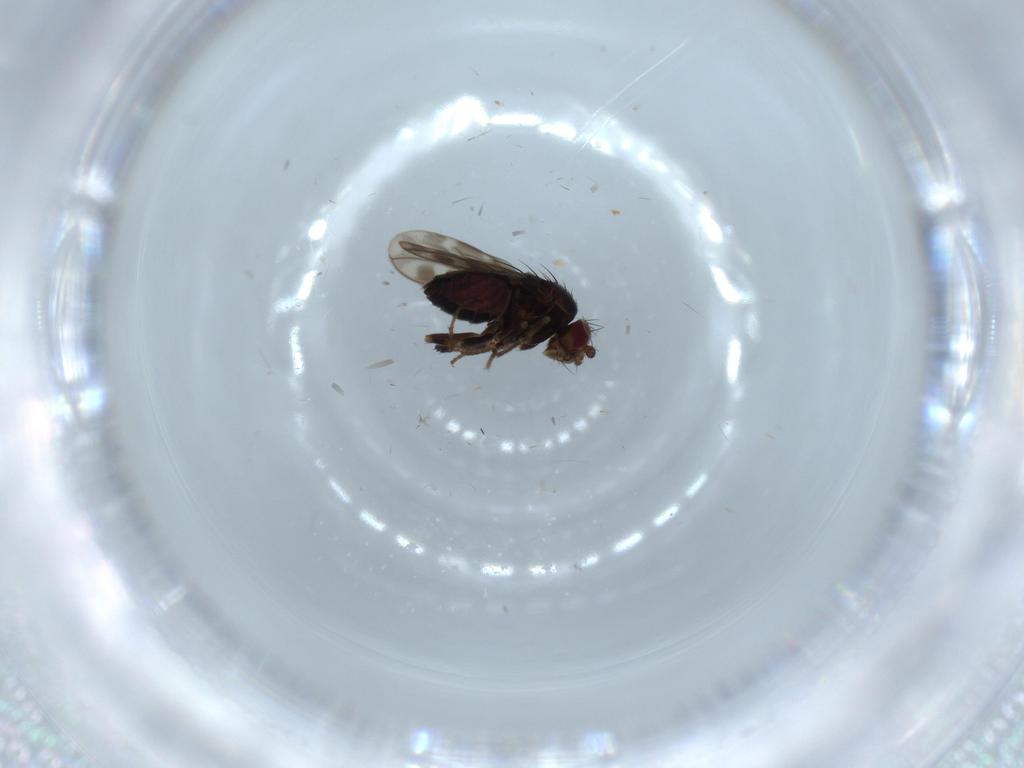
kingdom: Animalia
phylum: Arthropoda
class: Insecta
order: Diptera
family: Sphaeroceridae
